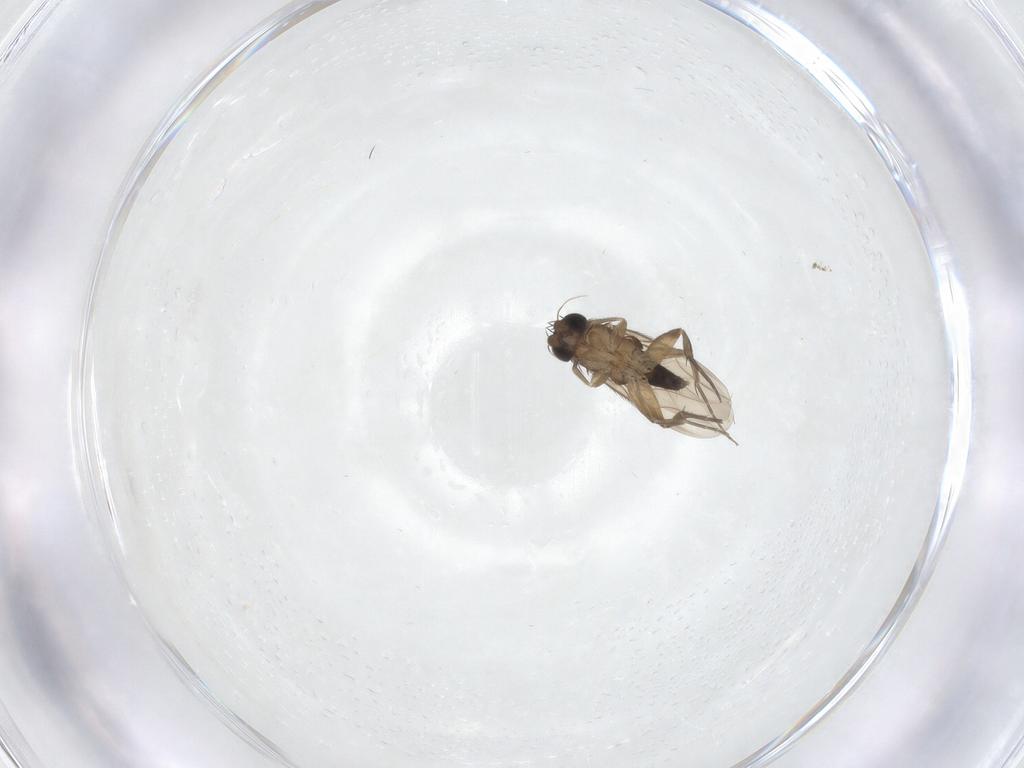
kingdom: Animalia
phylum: Arthropoda
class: Insecta
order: Diptera
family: Phoridae
